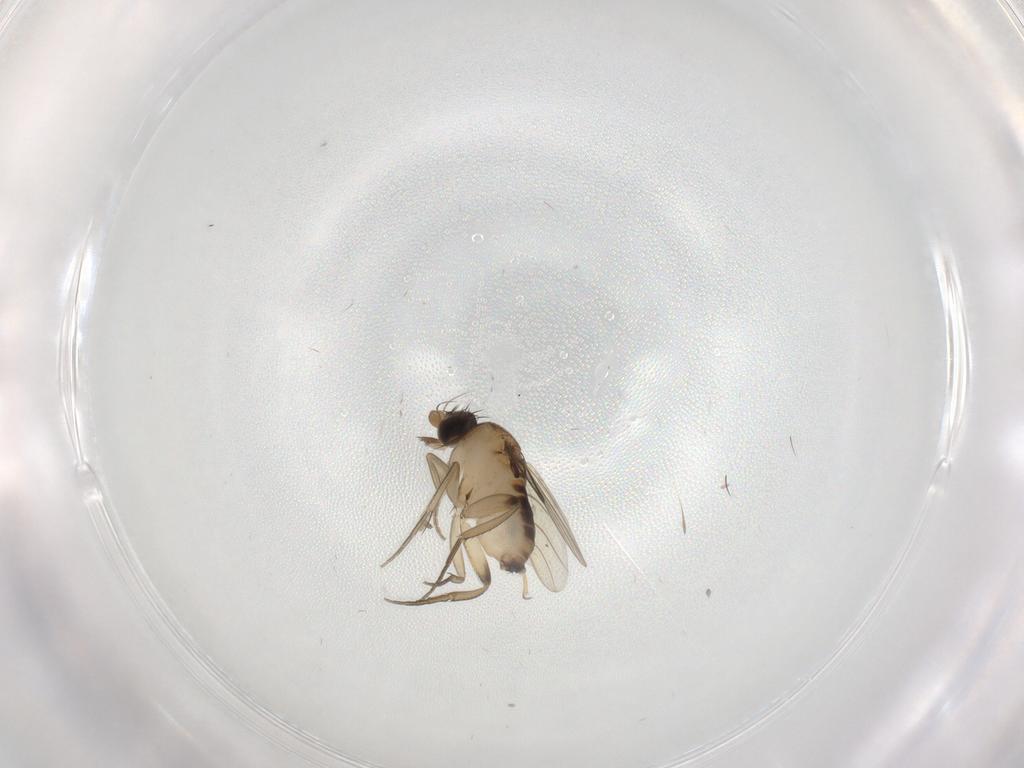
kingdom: Animalia
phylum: Arthropoda
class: Insecta
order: Diptera
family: Phoridae
